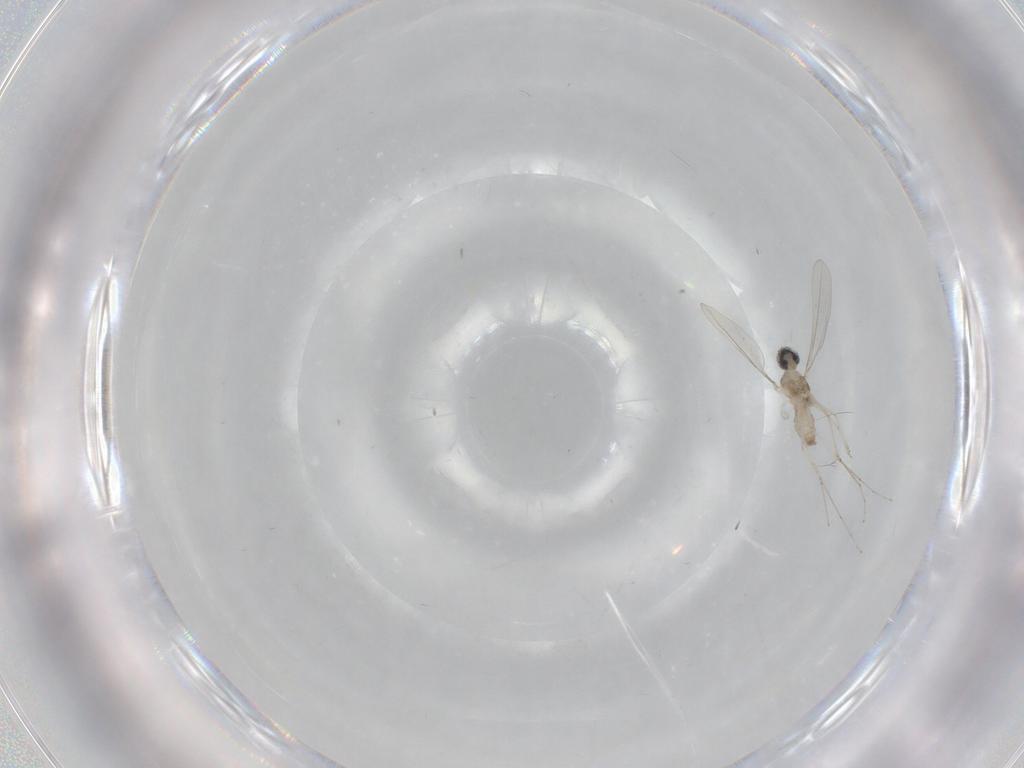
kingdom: Animalia
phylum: Arthropoda
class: Insecta
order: Diptera
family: Cecidomyiidae
